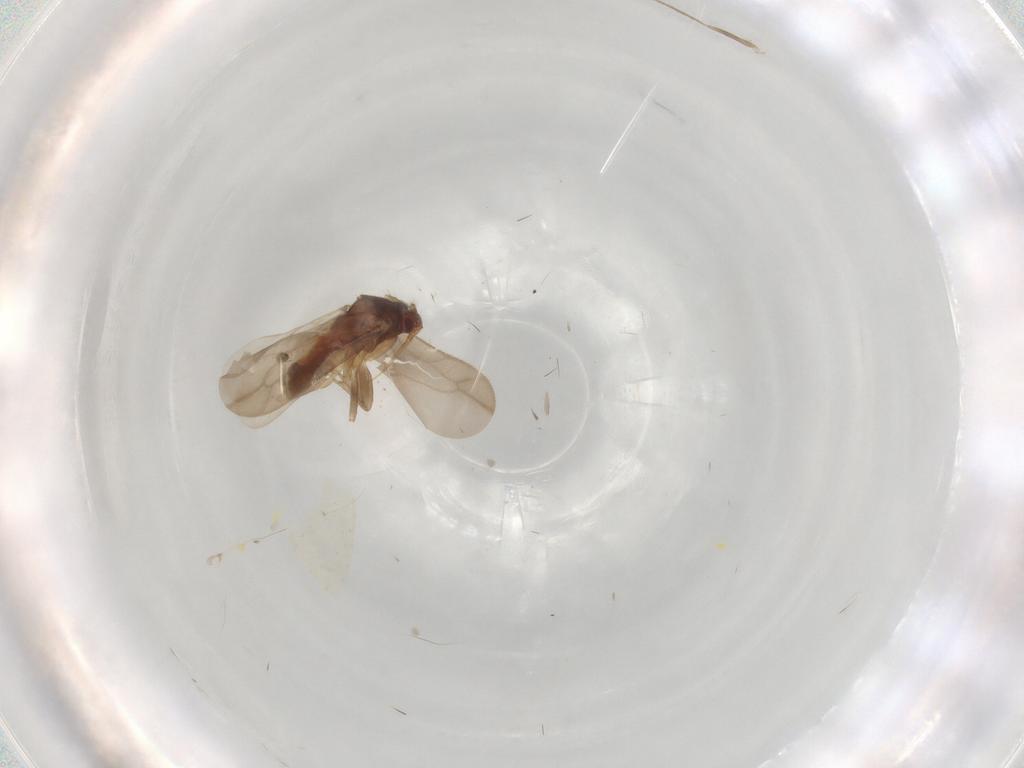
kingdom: Animalia
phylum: Arthropoda
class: Insecta
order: Hemiptera
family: Ceratocombidae
